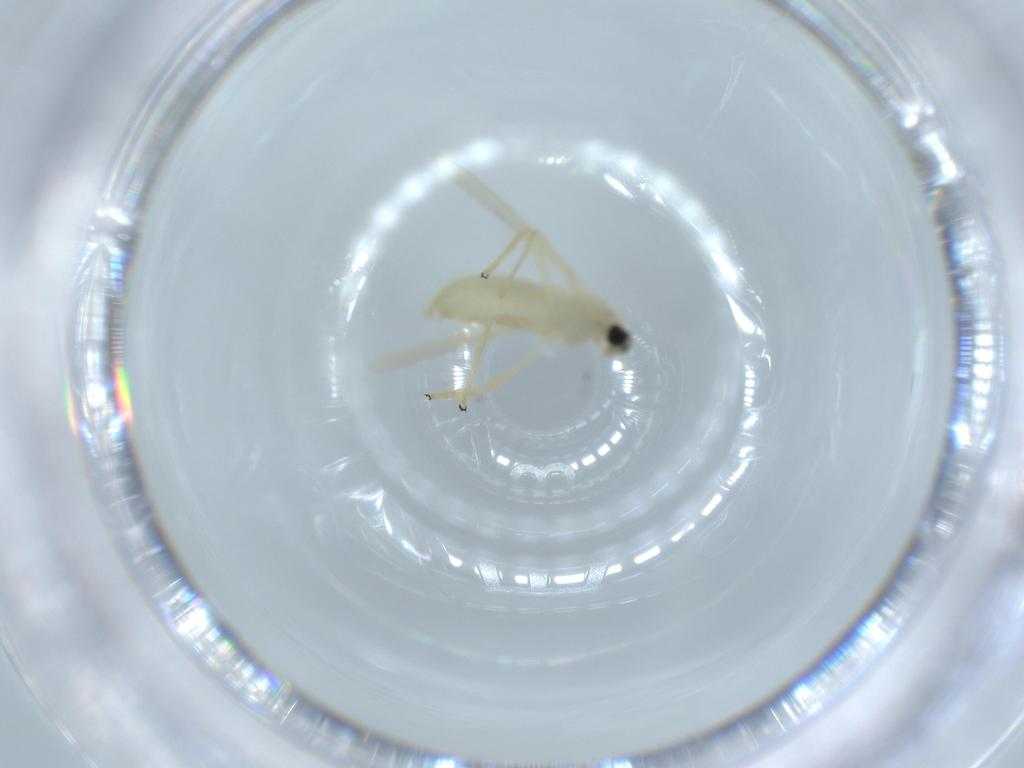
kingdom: Animalia
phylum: Arthropoda
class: Insecta
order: Diptera
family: Chironomidae
